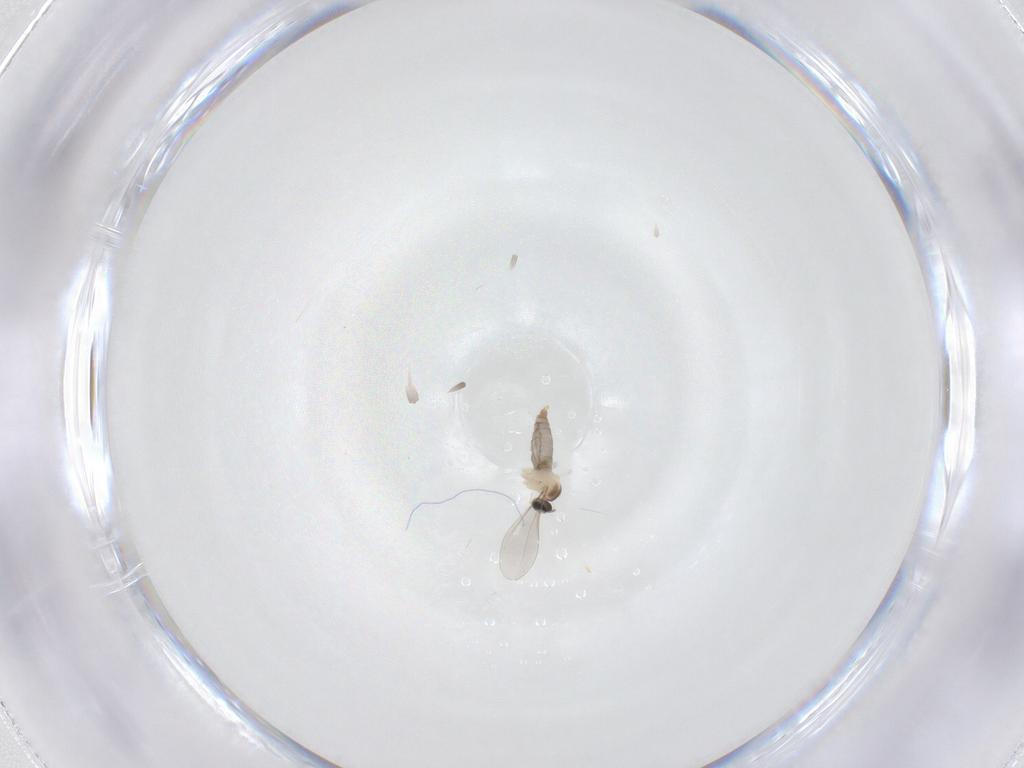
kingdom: Animalia
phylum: Arthropoda
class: Insecta
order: Diptera
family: Cecidomyiidae
